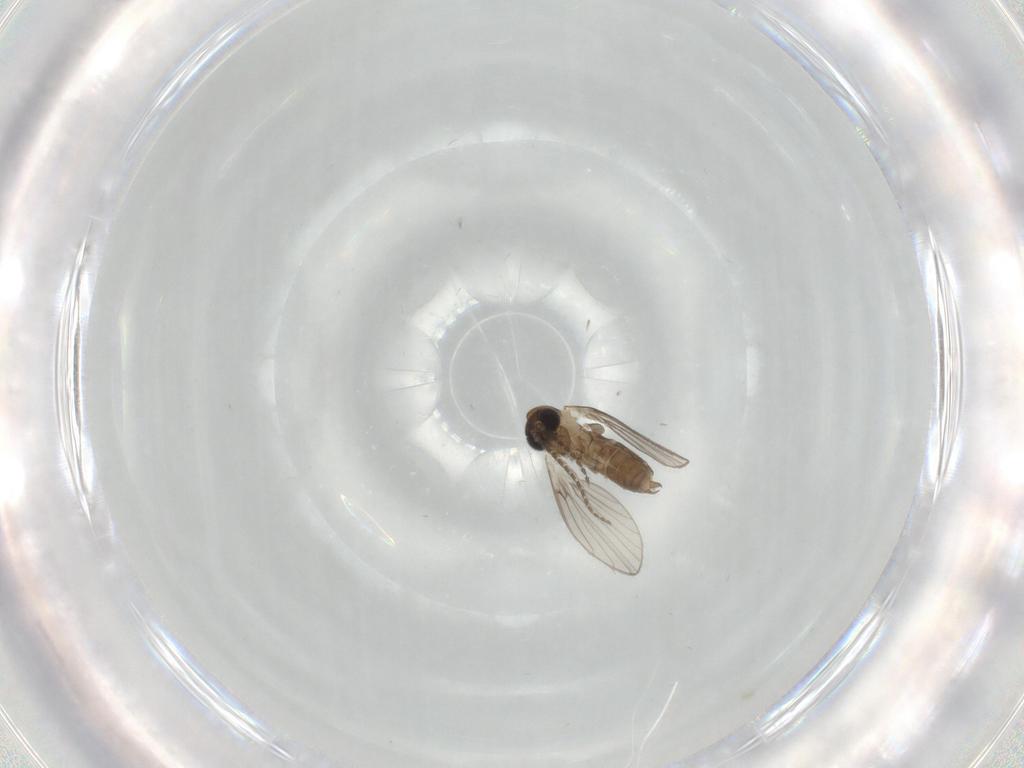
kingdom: Animalia
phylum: Arthropoda
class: Insecta
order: Diptera
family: Psychodidae
